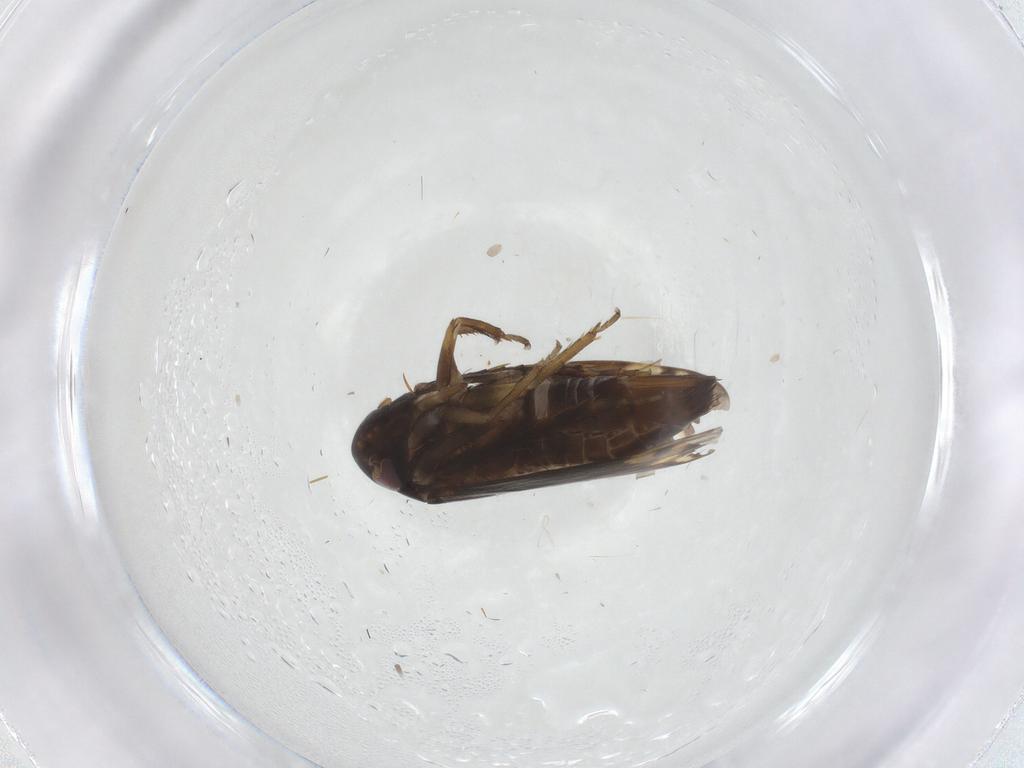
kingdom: Animalia
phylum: Arthropoda
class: Insecta
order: Hemiptera
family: Cicadellidae
